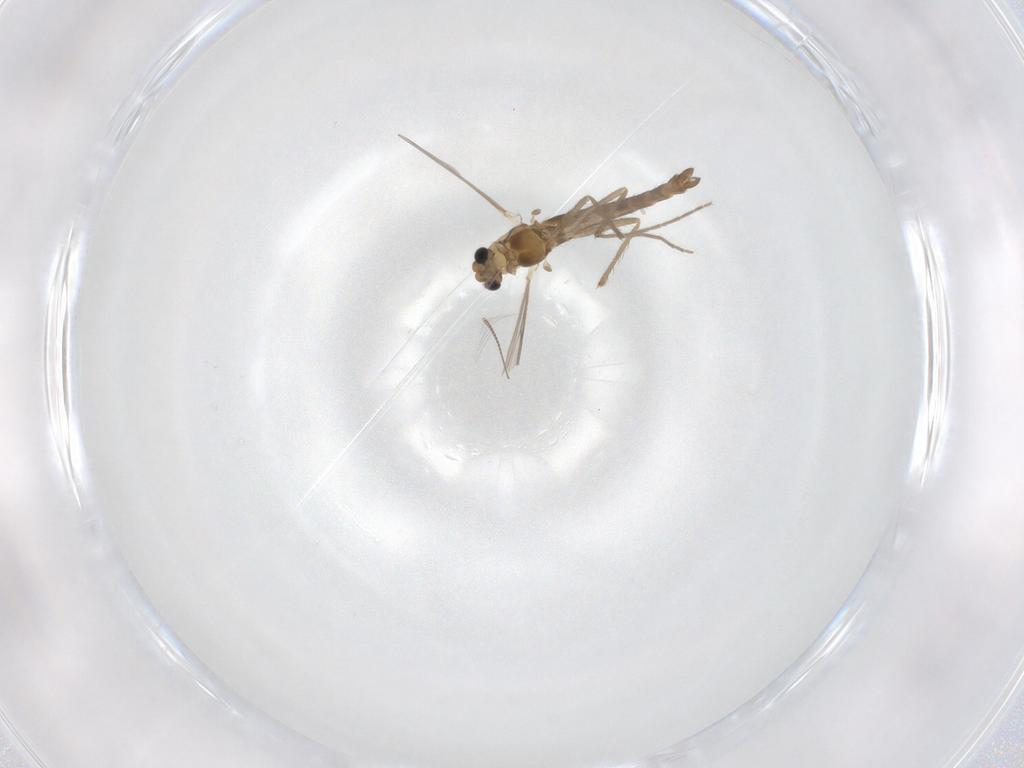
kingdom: Animalia
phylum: Arthropoda
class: Insecta
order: Diptera
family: Chironomidae
